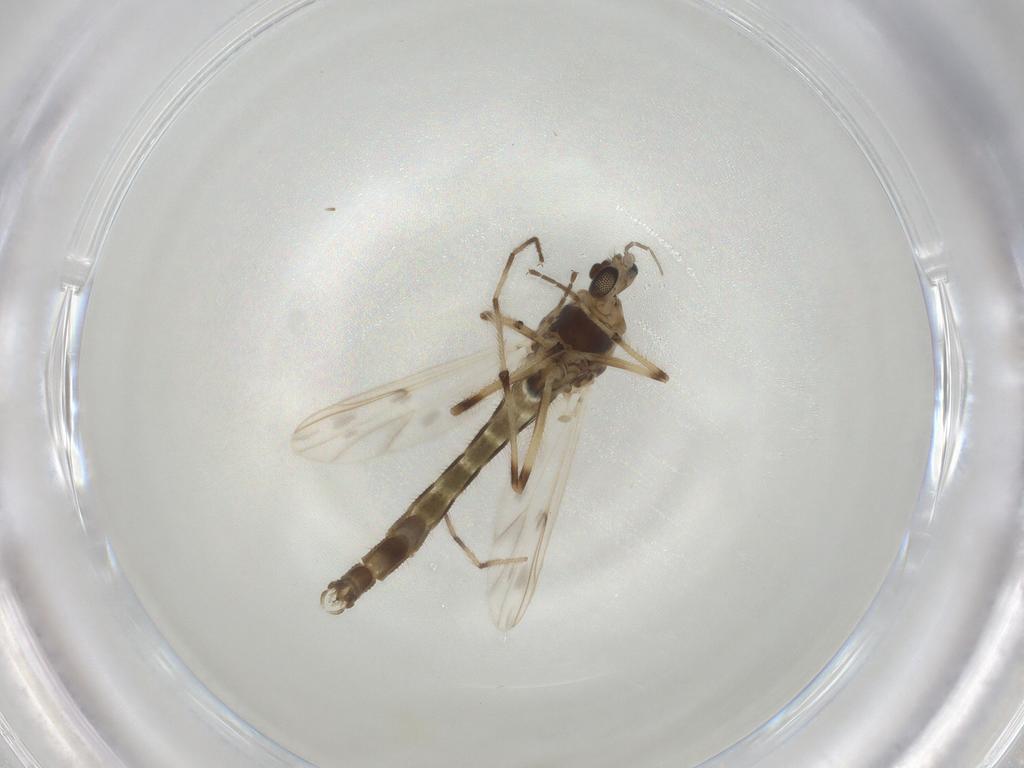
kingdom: Animalia
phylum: Arthropoda
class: Insecta
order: Diptera
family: Chironomidae
